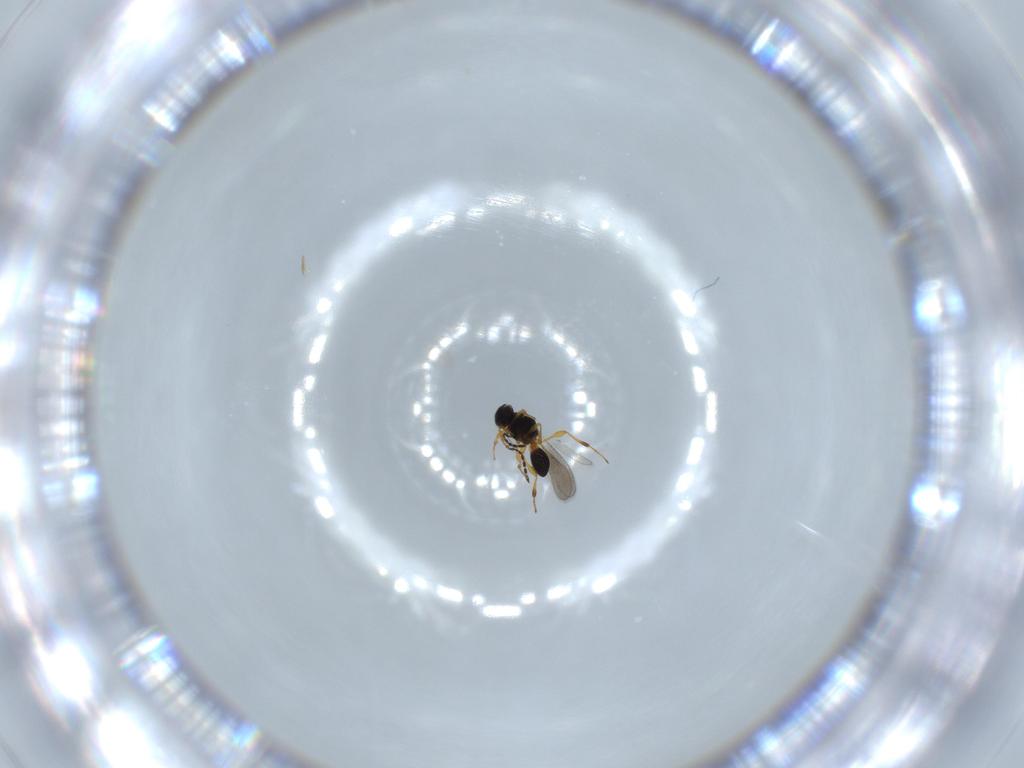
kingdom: Animalia
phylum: Arthropoda
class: Insecta
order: Hymenoptera
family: Platygastridae
